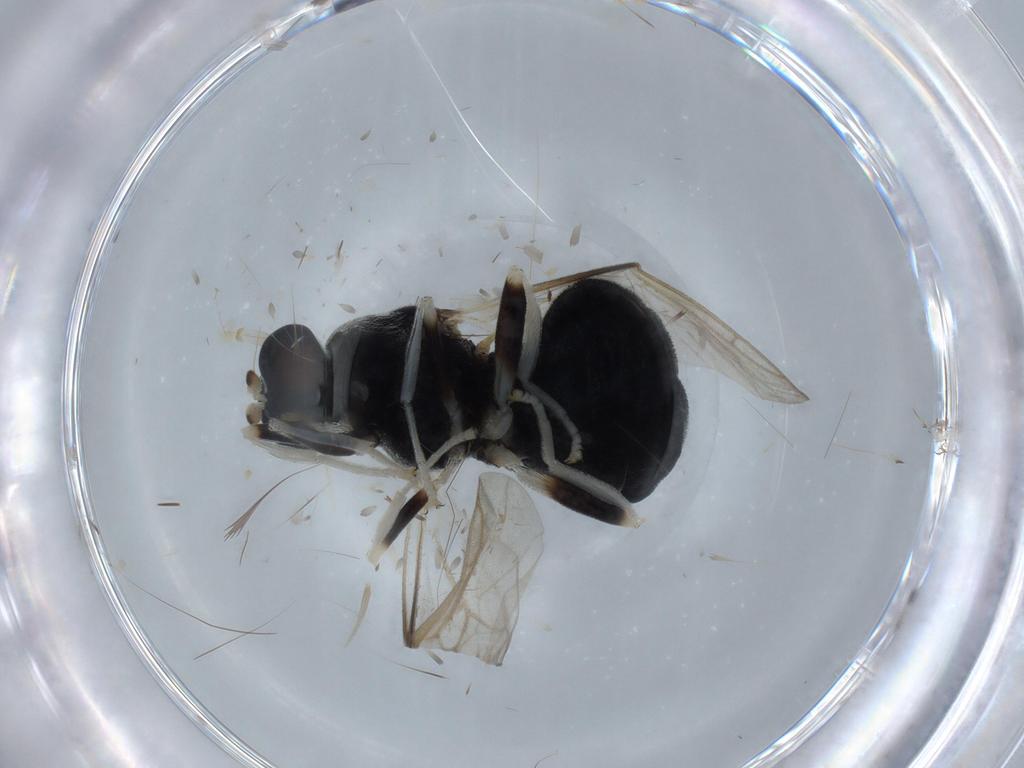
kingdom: Animalia
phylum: Arthropoda
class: Insecta
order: Diptera
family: Stratiomyidae
